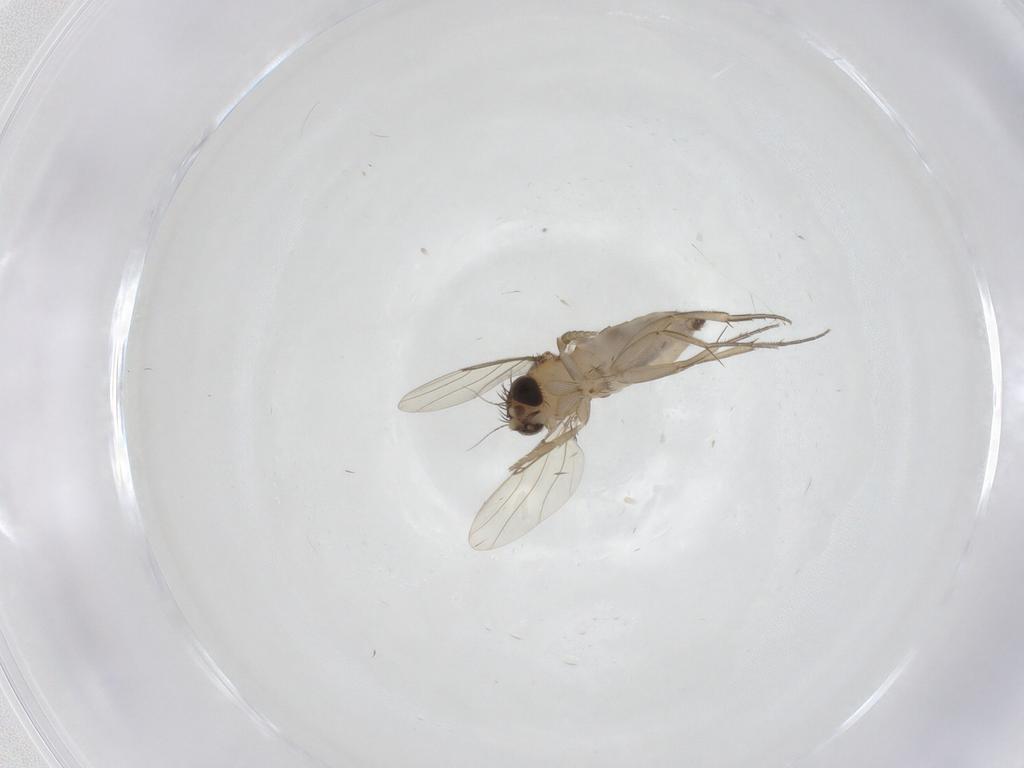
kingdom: Animalia
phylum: Arthropoda
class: Insecta
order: Diptera
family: Phoridae
